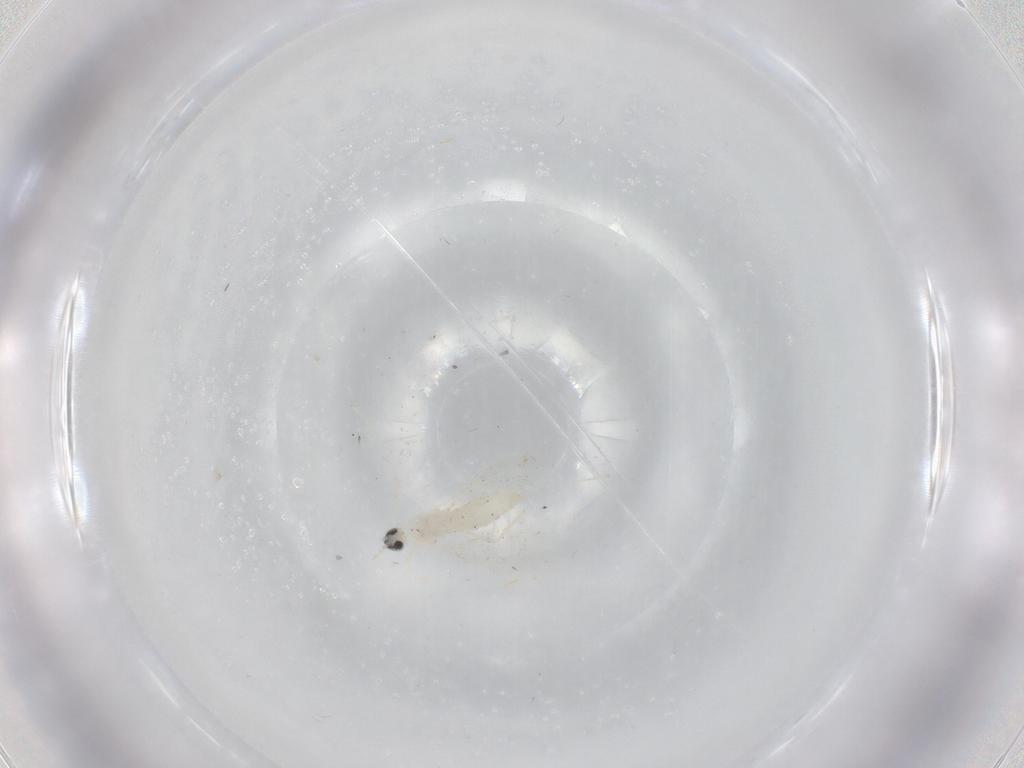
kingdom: Animalia
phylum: Arthropoda
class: Insecta
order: Diptera
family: Cecidomyiidae
